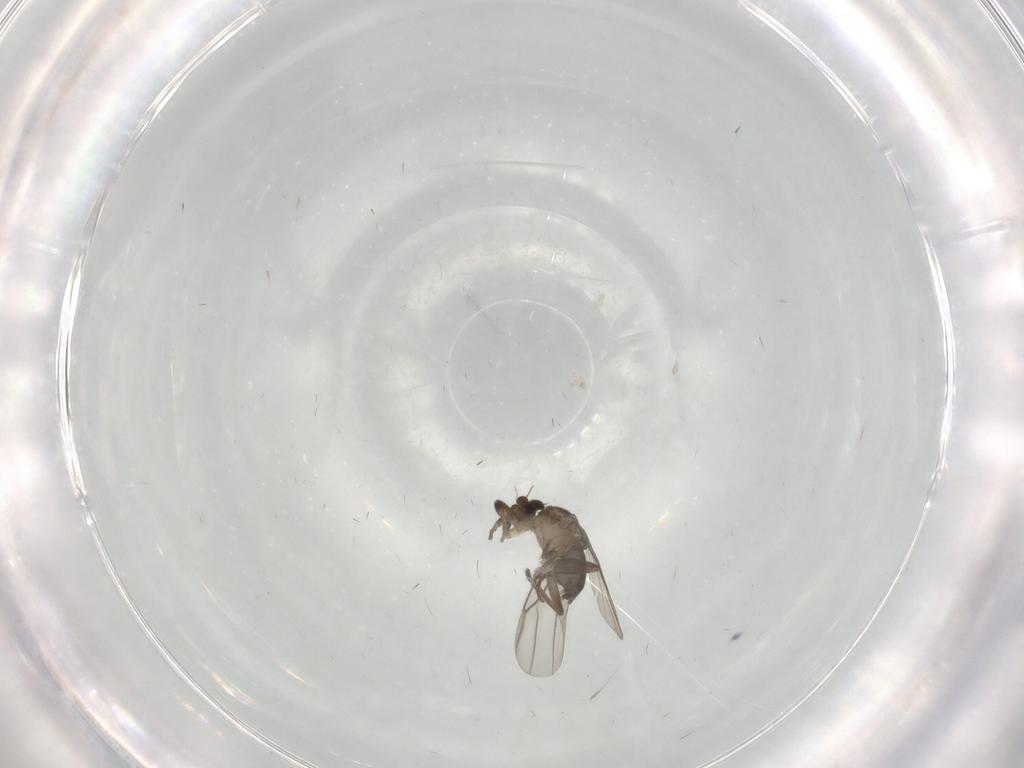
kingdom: Animalia
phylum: Arthropoda
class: Insecta
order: Diptera
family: Phoridae
